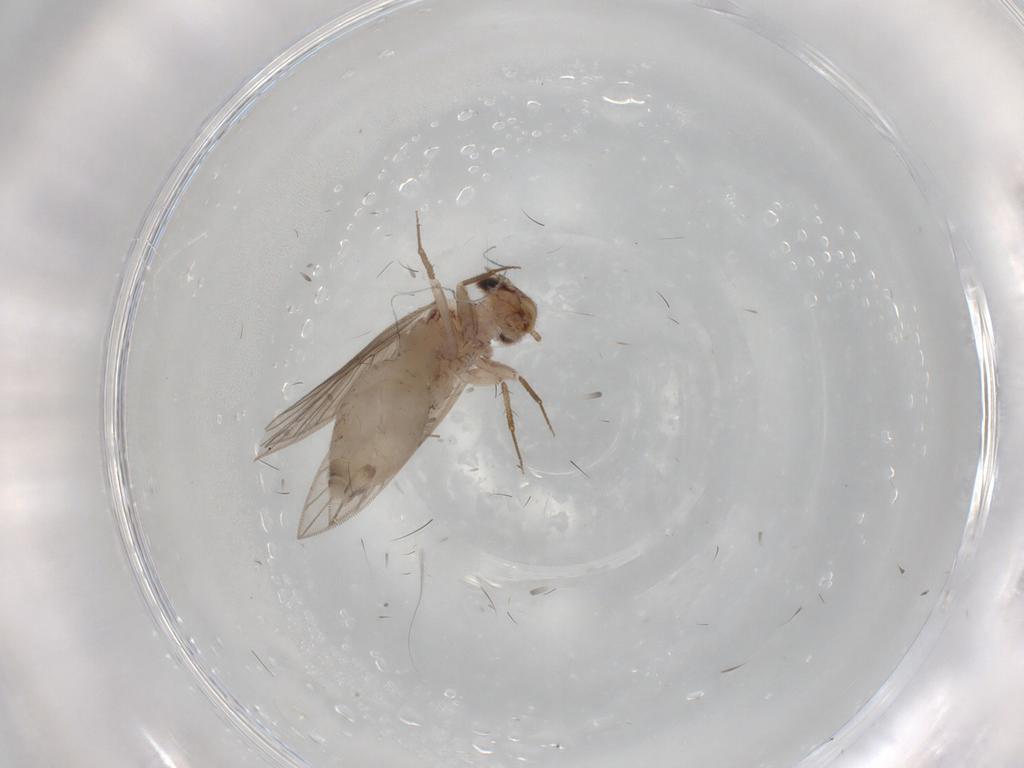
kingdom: Animalia
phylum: Arthropoda
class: Insecta
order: Psocodea
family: Lepidopsocidae
